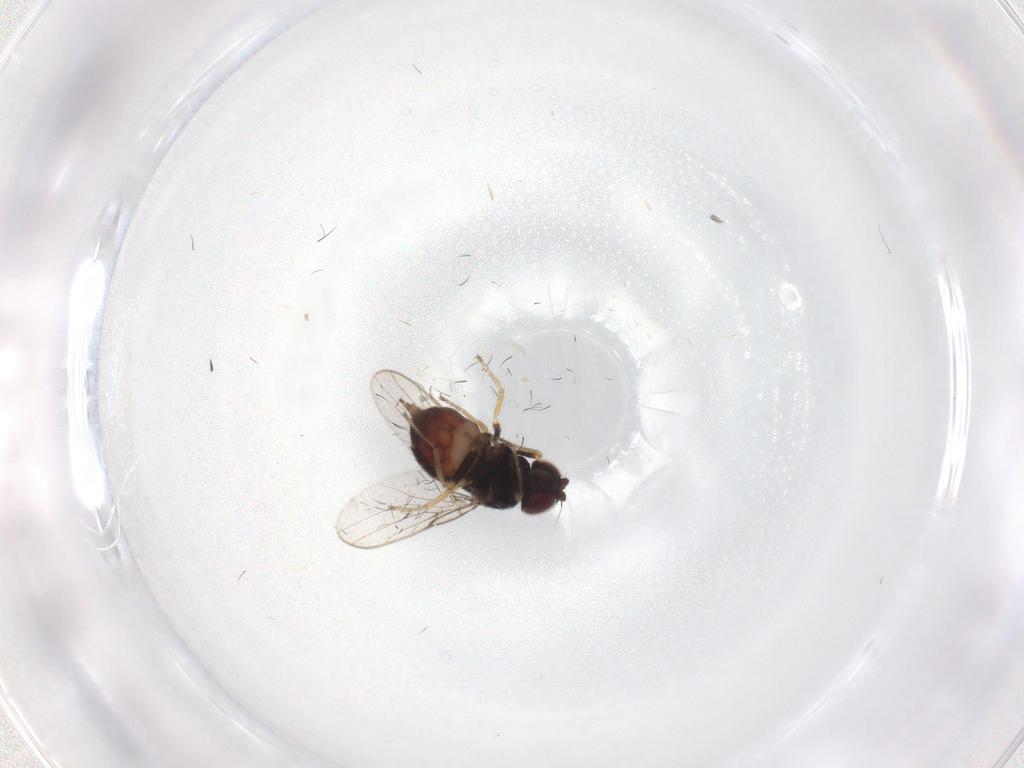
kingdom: Animalia
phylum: Arthropoda
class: Insecta
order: Diptera
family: Chloropidae
